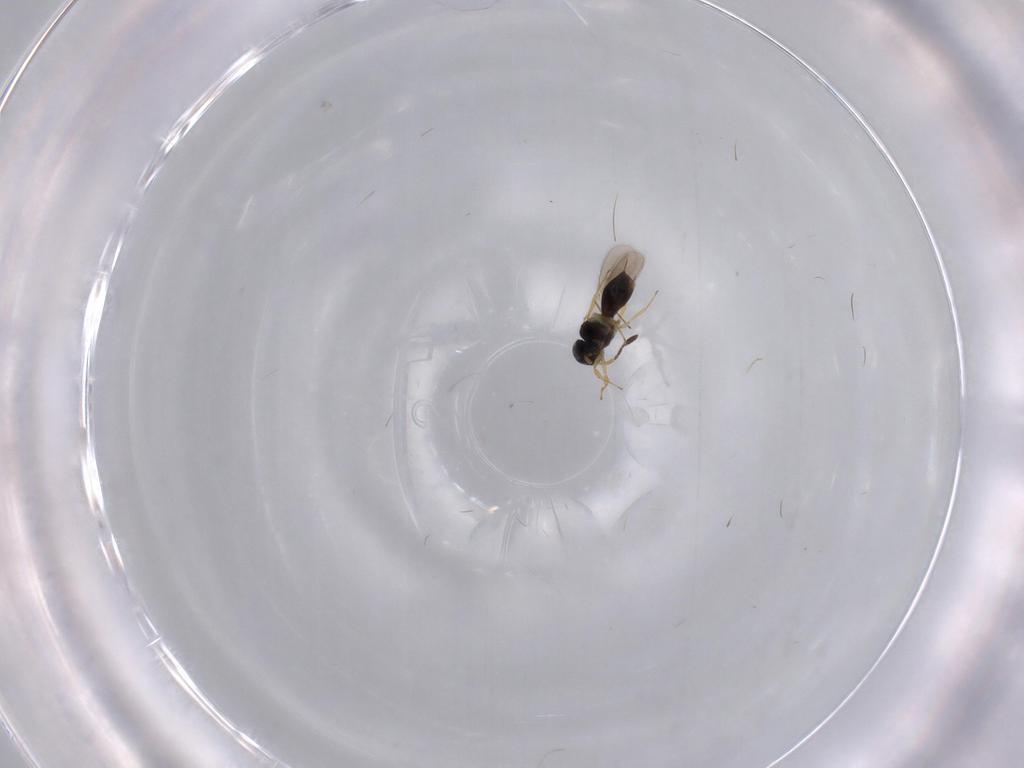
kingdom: Animalia
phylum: Arthropoda
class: Insecta
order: Hymenoptera
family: Scelionidae
